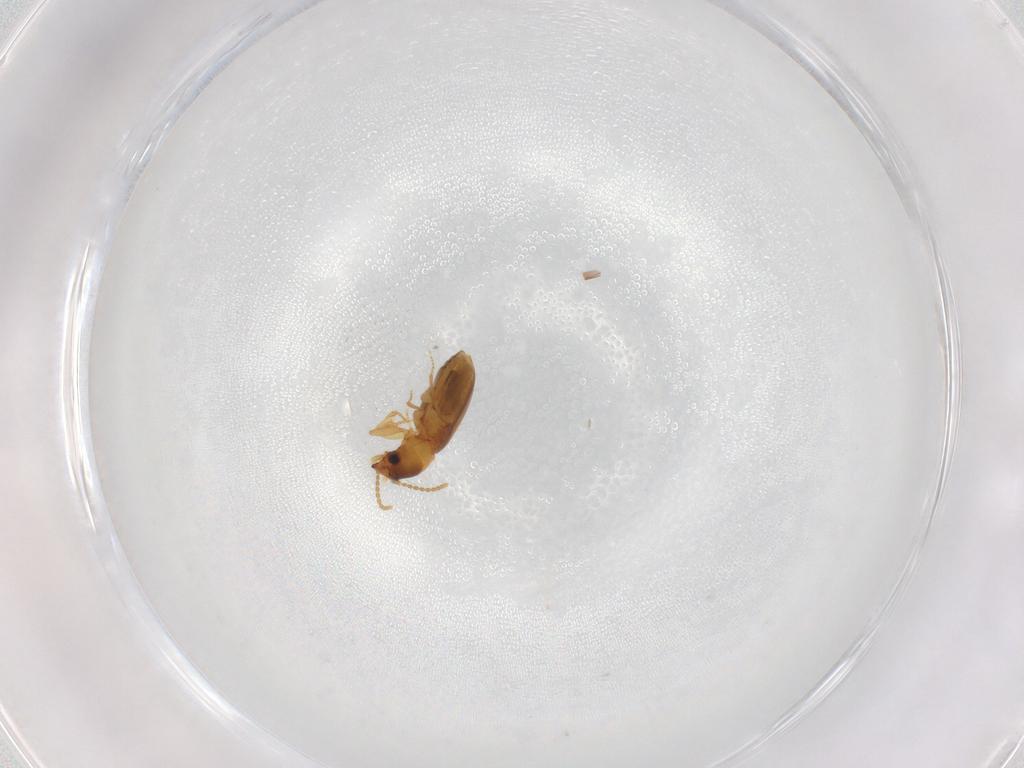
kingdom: Animalia
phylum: Arthropoda
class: Insecta
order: Coleoptera
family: Carabidae
